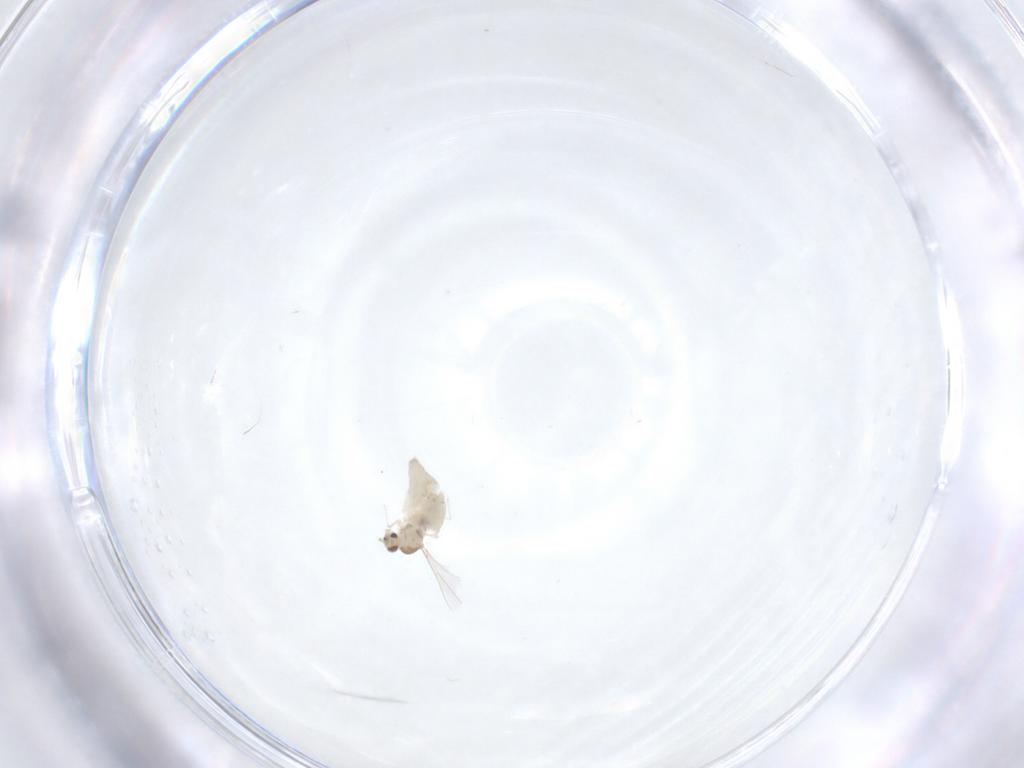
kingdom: Animalia
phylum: Arthropoda
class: Insecta
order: Diptera
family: Cecidomyiidae
